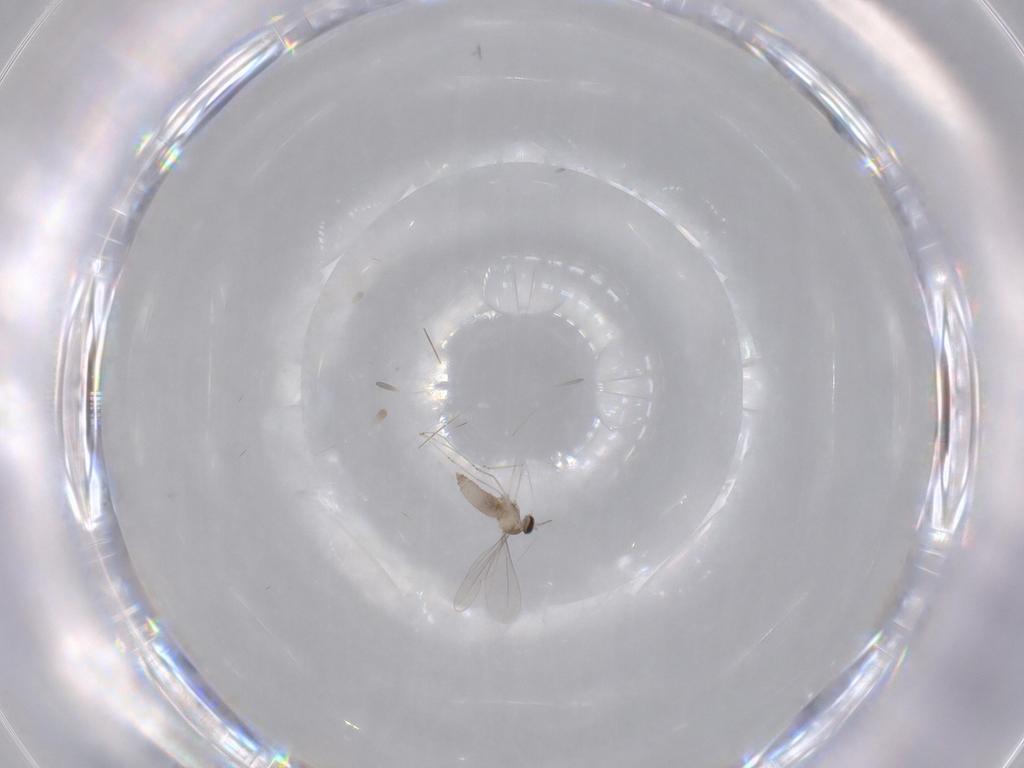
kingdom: Animalia
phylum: Arthropoda
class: Insecta
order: Diptera
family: Cecidomyiidae
